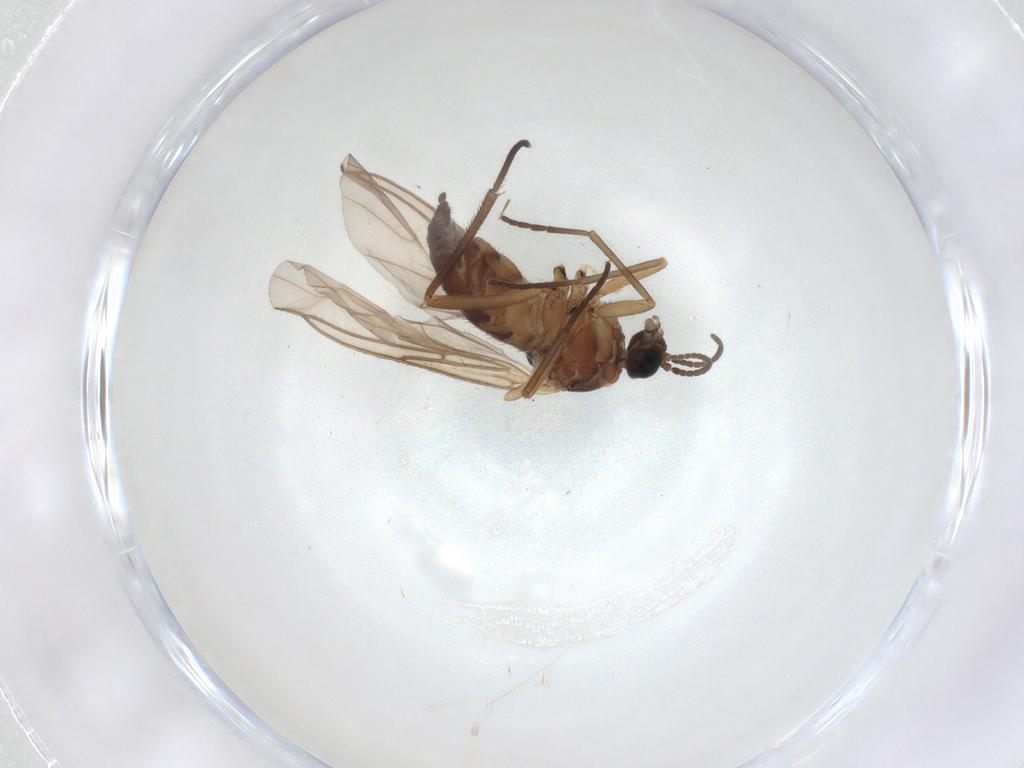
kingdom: Animalia
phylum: Arthropoda
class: Insecta
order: Diptera
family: Sciaridae
